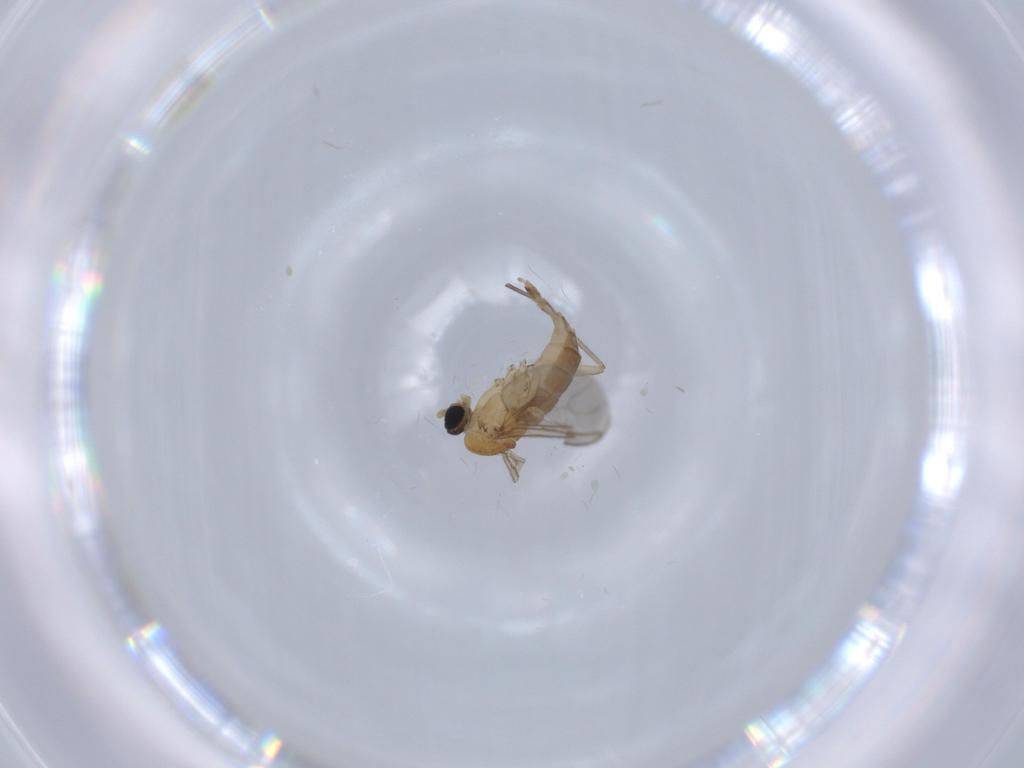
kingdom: Animalia
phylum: Arthropoda
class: Insecta
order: Diptera
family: Sciaridae
